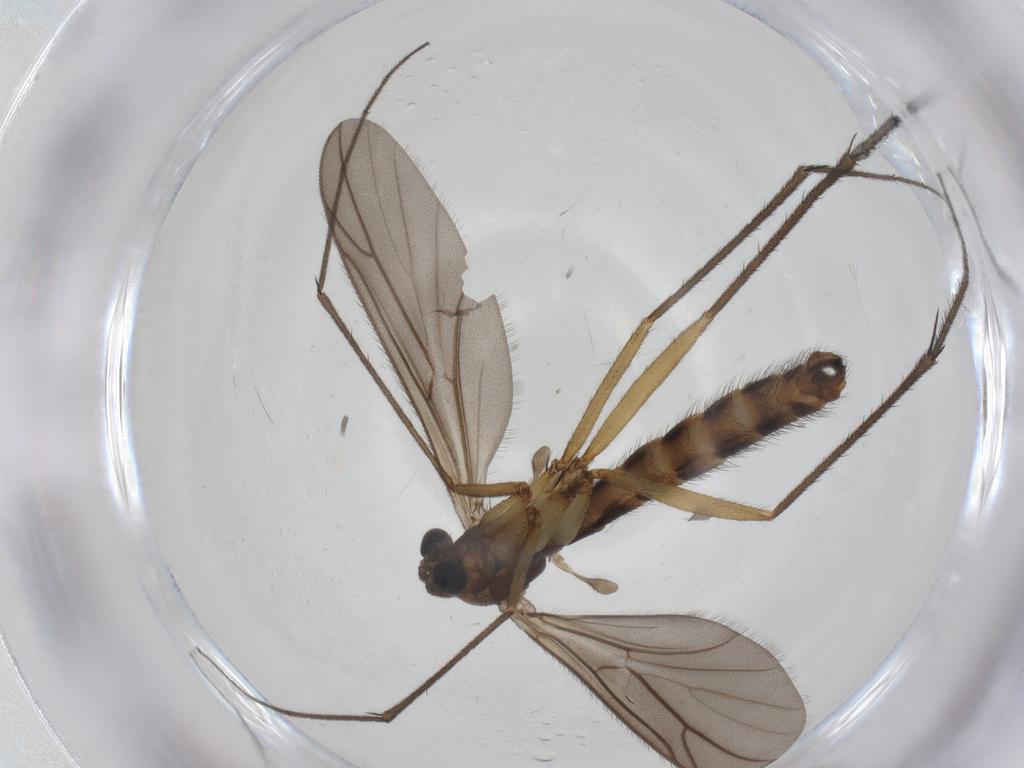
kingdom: Animalia
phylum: Arthropoda
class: Insecta
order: Diptera
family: Ditomyiidae
